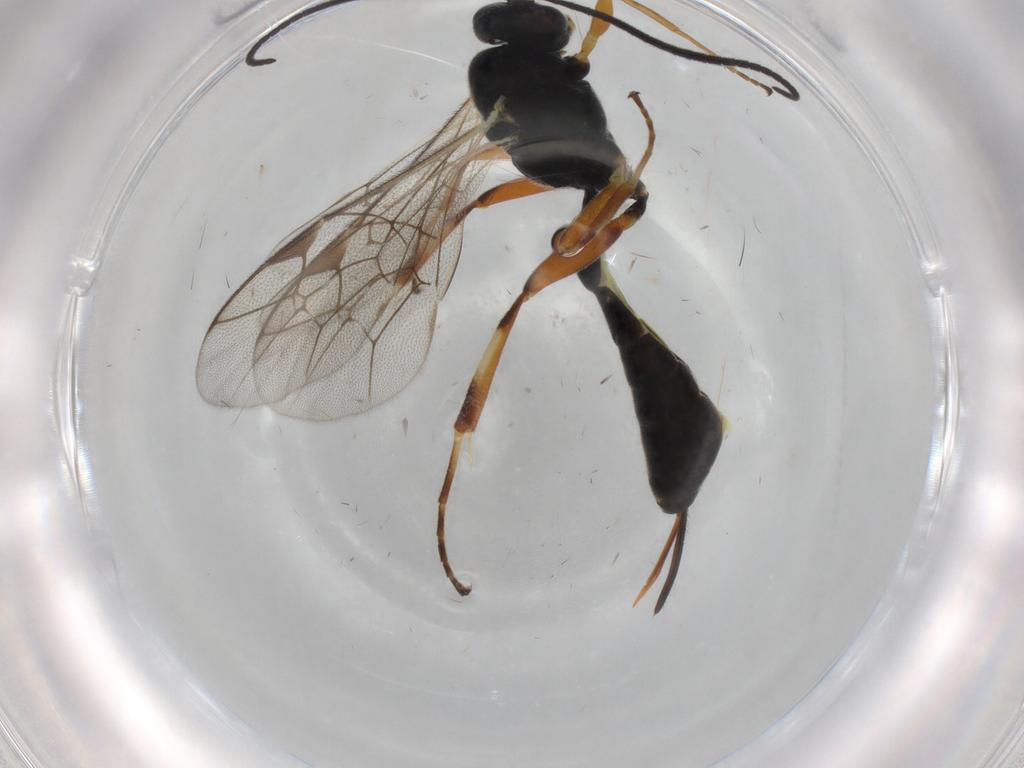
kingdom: Animalia
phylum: Arthropoda
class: Insecta
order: Hymenoptera
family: Ichneumonidae
